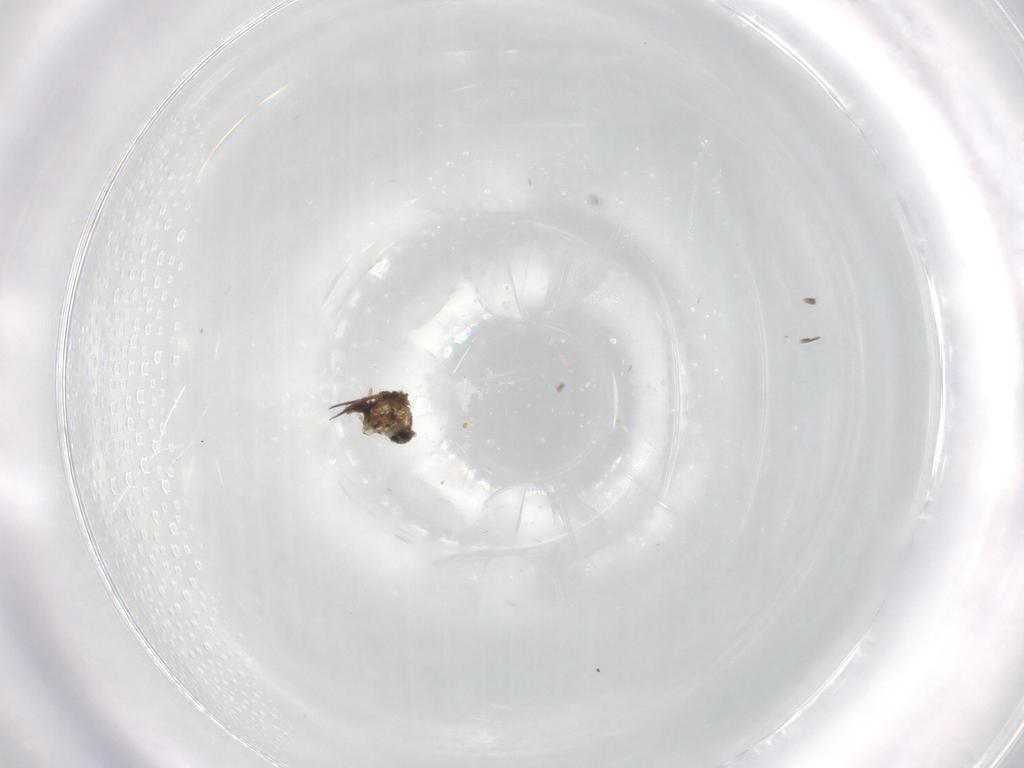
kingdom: Animalia
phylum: Arthropoda
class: Insecta
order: Diptera
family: Cecidomyiidae
